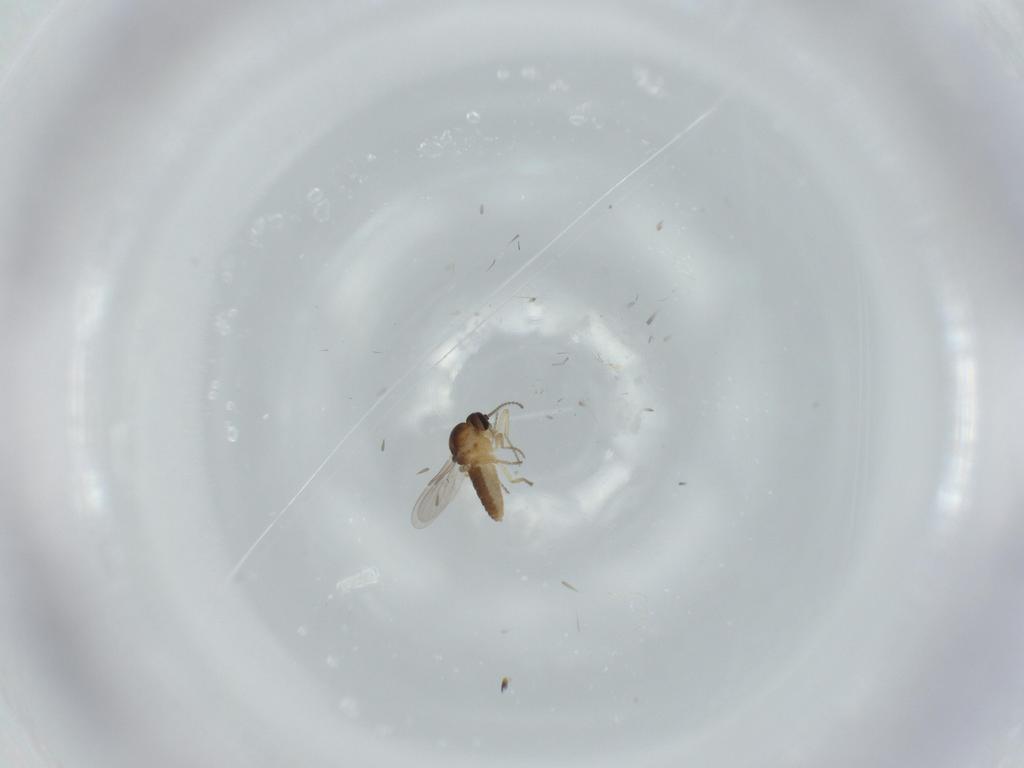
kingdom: Animalia
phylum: Arthropoda
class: Insecta
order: Diptera
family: Ceratopogonidae
